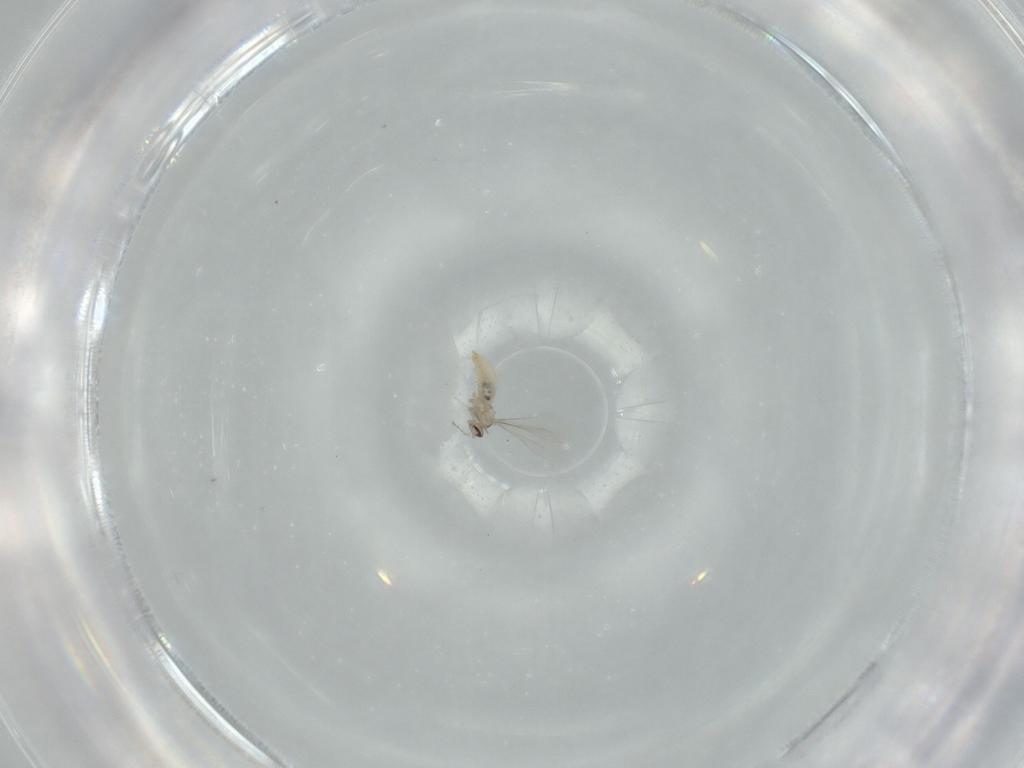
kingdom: Animalia
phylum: Arthropoda
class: Insecta
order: Diptera
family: Cecidomyiidae
